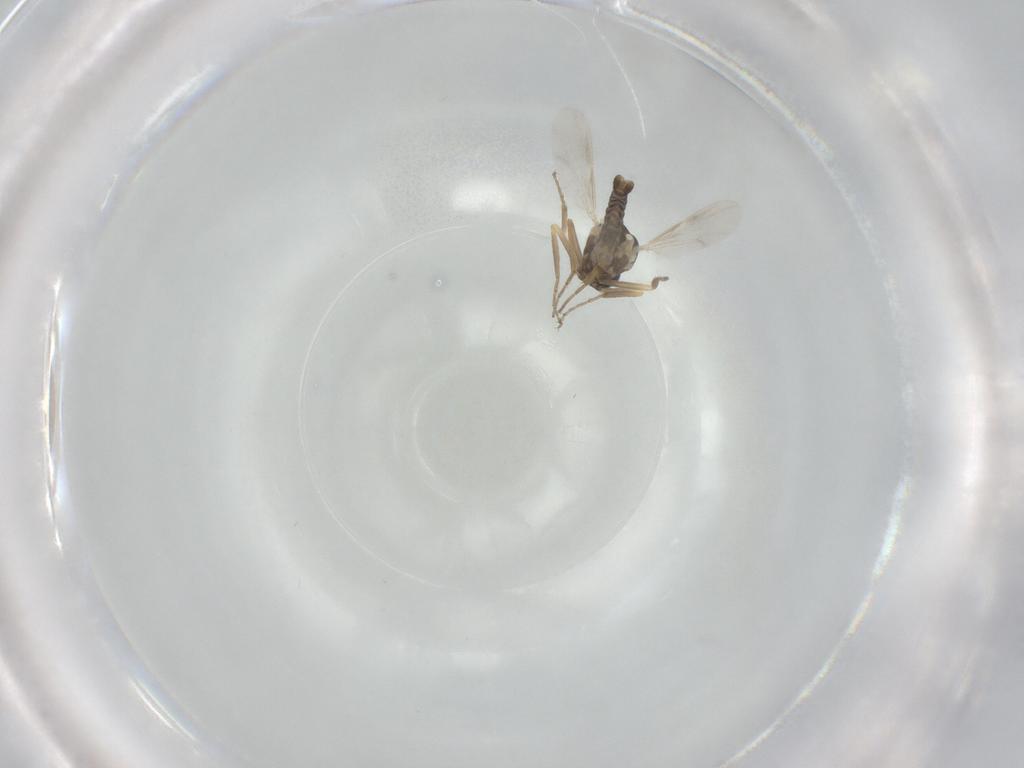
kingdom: Animalia
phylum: Arthropoda
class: Insecta
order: Diptera
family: Ceratopogonidae
